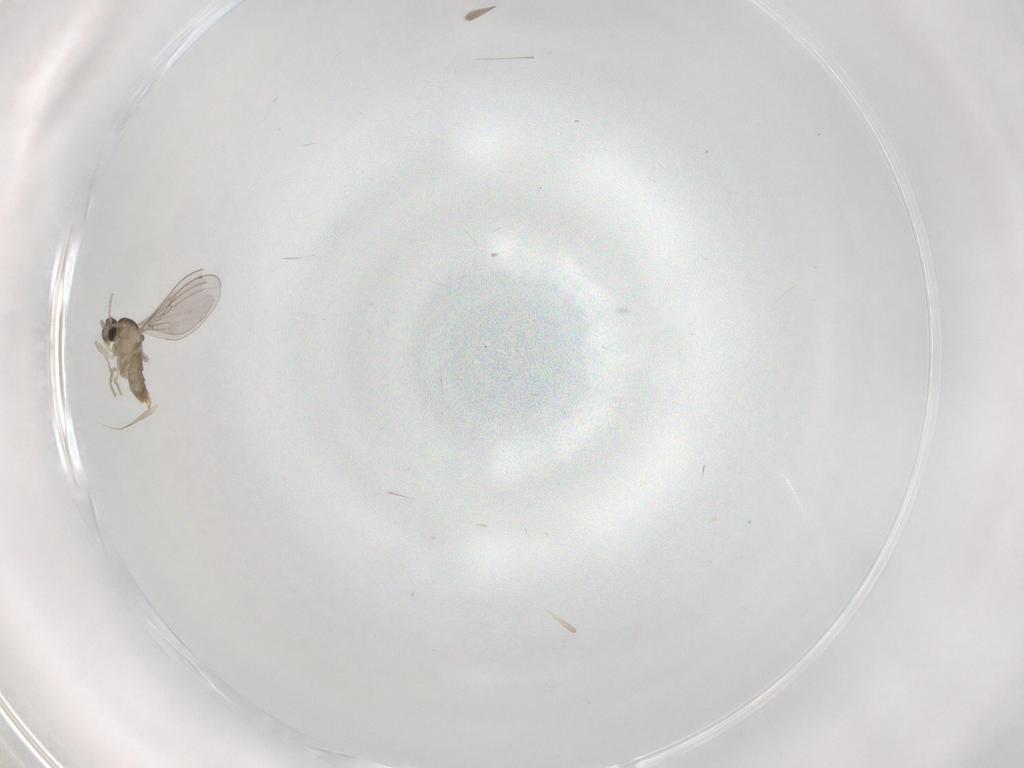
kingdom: Animalia
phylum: Arthropoda
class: Insecta
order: Diptera
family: Cecidomyiidae
